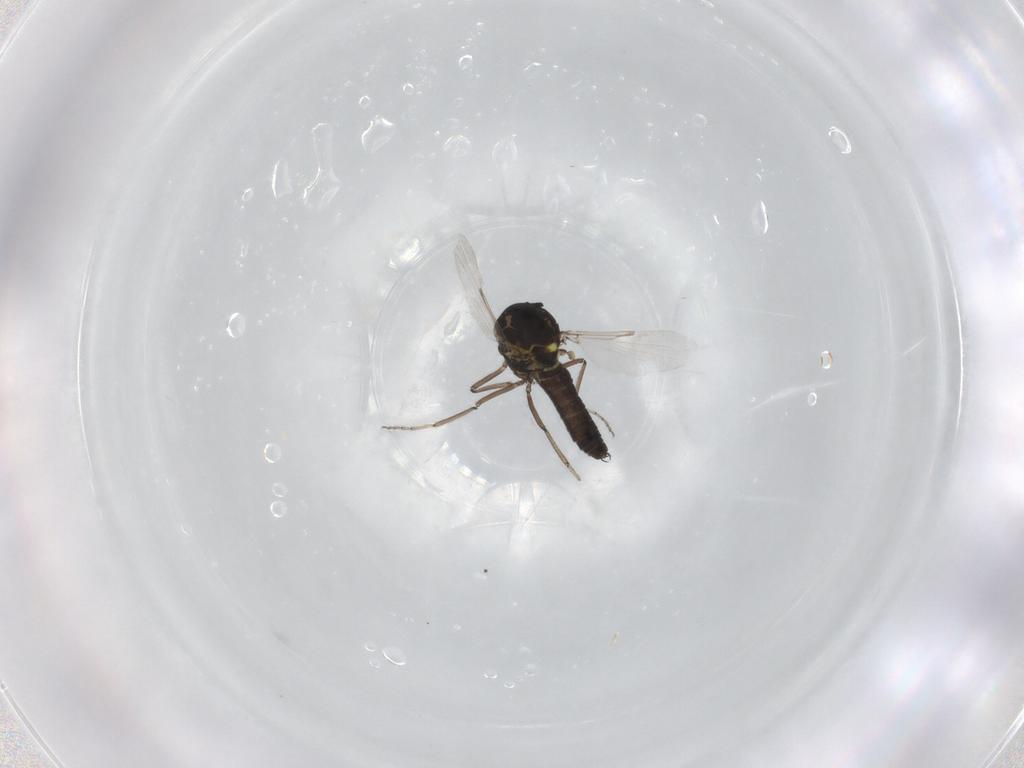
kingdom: Animalia
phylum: Arthropoda
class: Insecta
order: Diptera
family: Ceratopogonidae
